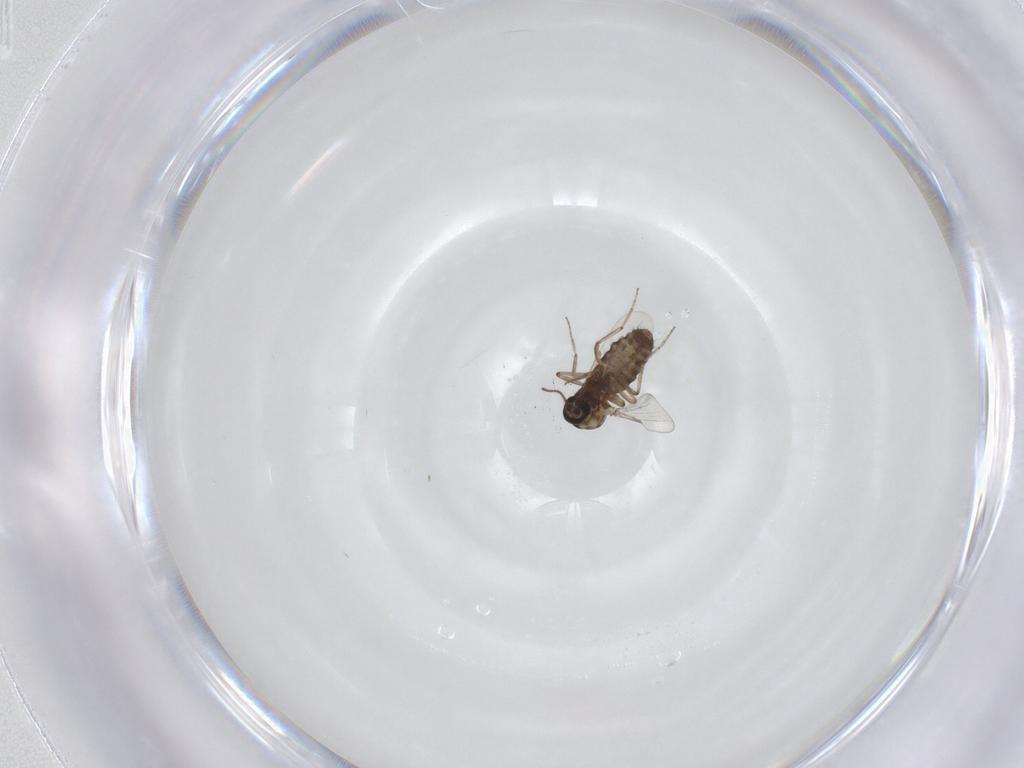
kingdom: Animalia
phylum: Arthropoda
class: Insecta
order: Diptera
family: Ceratopogonidae
